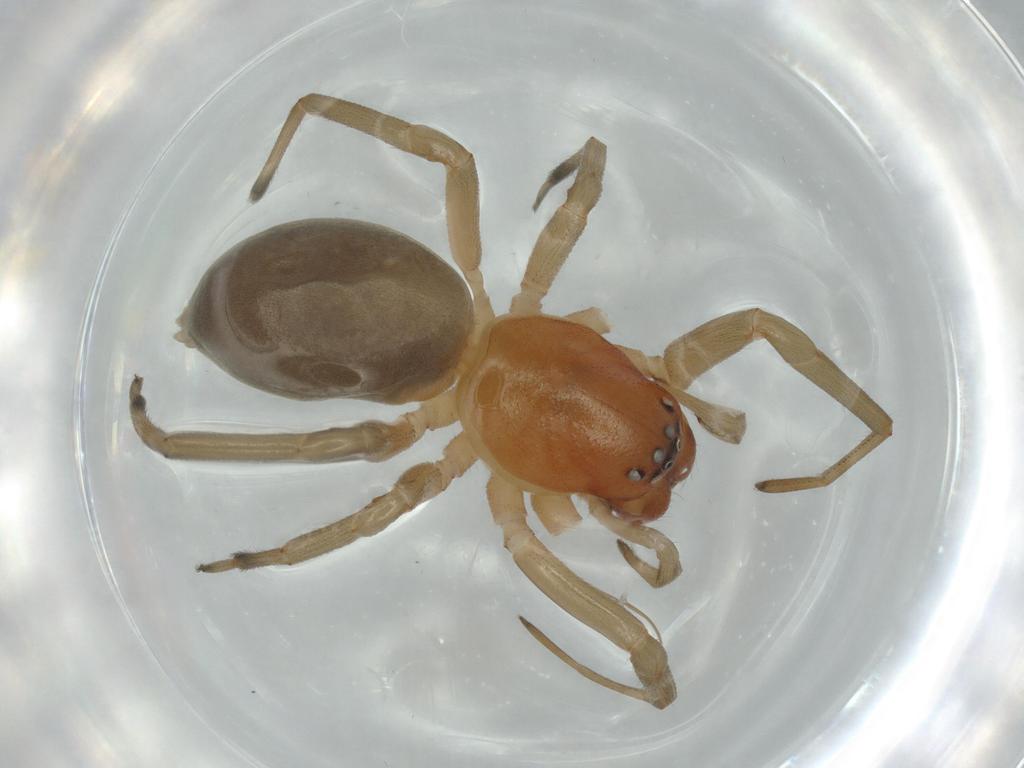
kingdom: Animalia
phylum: Arthropoda
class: Arachnida
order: Araneae
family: Trachelidae
